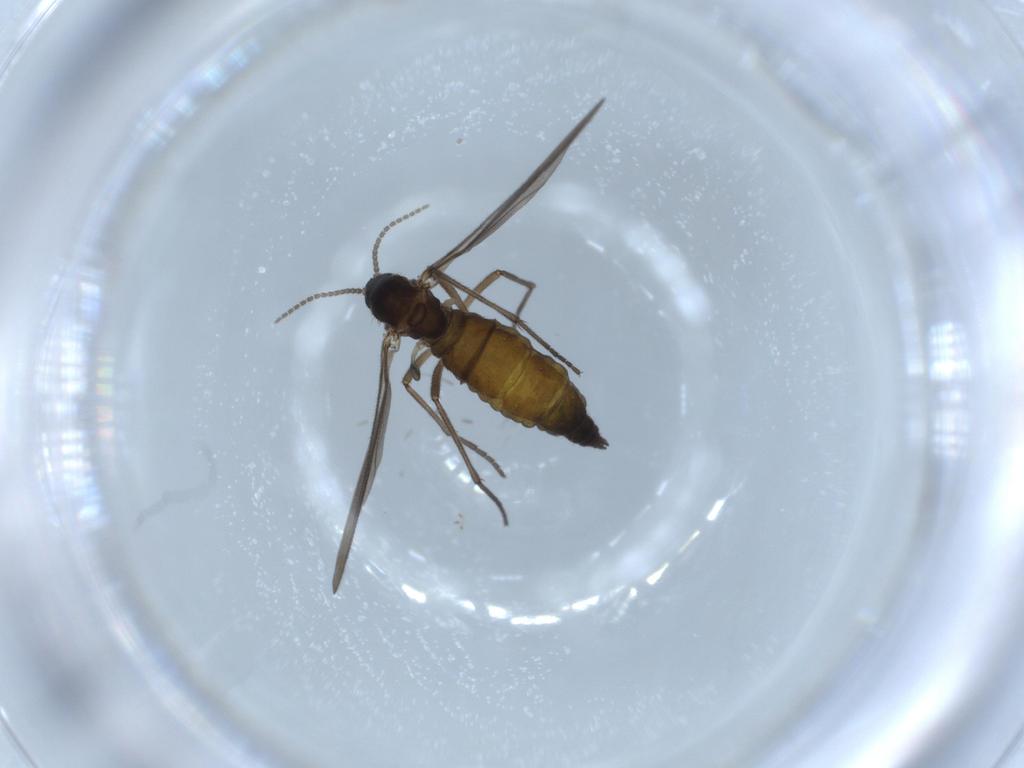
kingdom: Animalia
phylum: Arthropoda
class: Insecta
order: Diptera
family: Sciaridae
